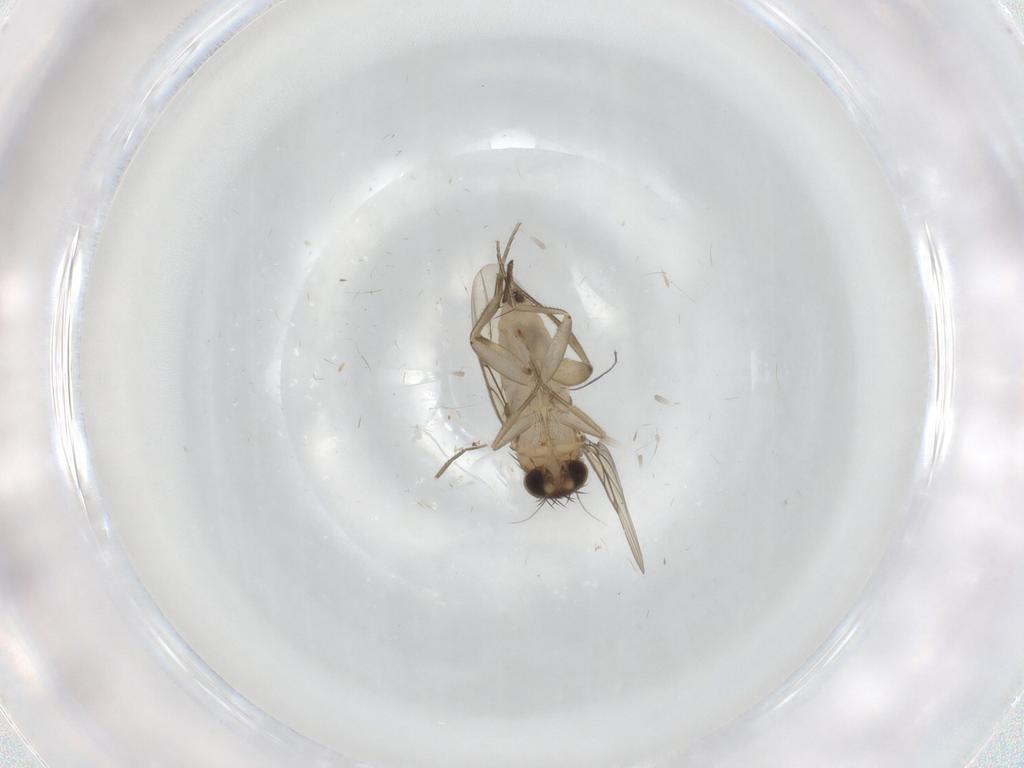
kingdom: Animalia
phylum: Arthropoda
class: Insecta
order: Diptera
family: Phoridae
